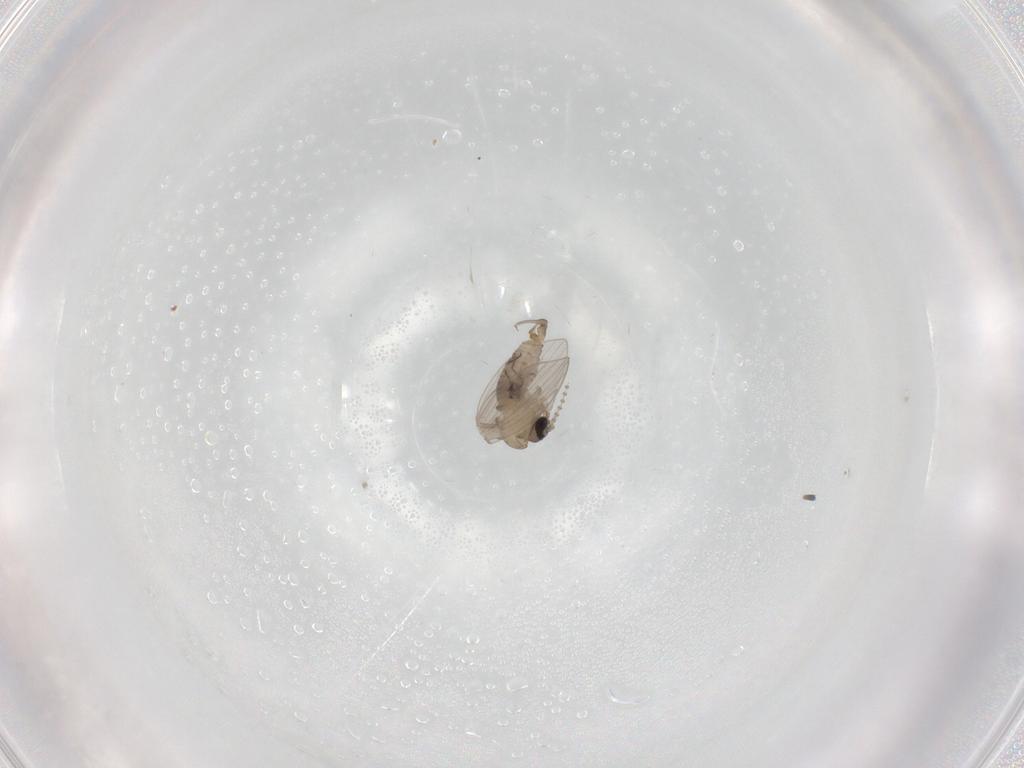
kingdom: Animalia
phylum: Arthropoda
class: Insecta
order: Diptera
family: Psychodidae
